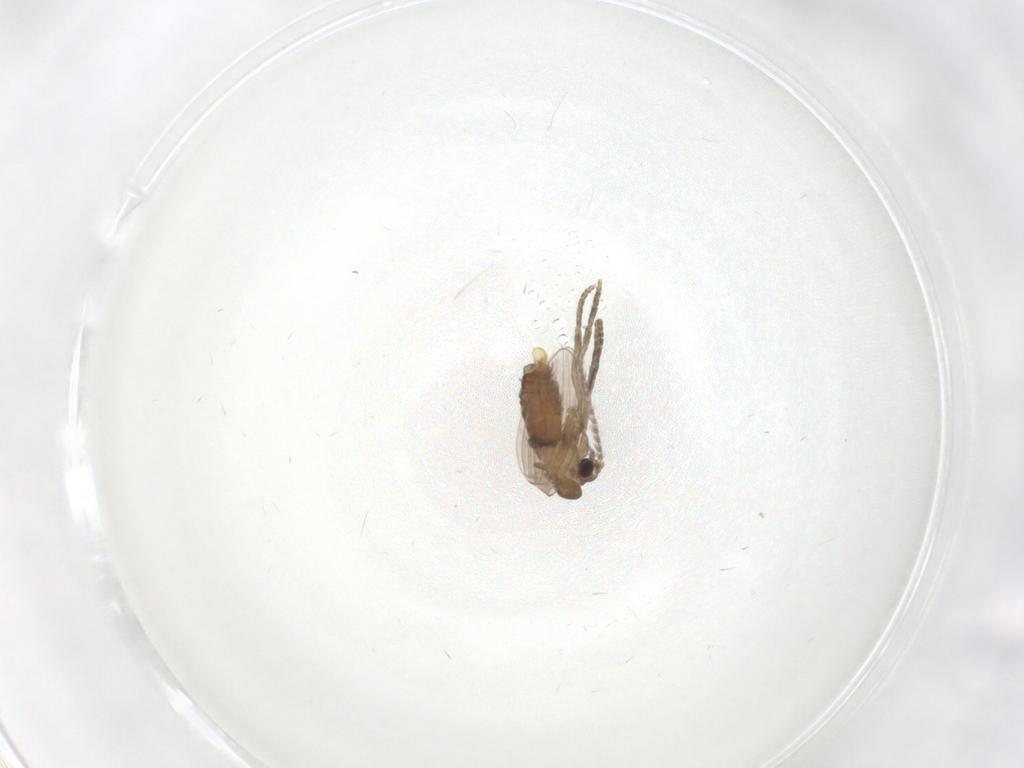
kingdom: Animalia
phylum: Arthropoda
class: Insecta
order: Diptera
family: Limoniidae
